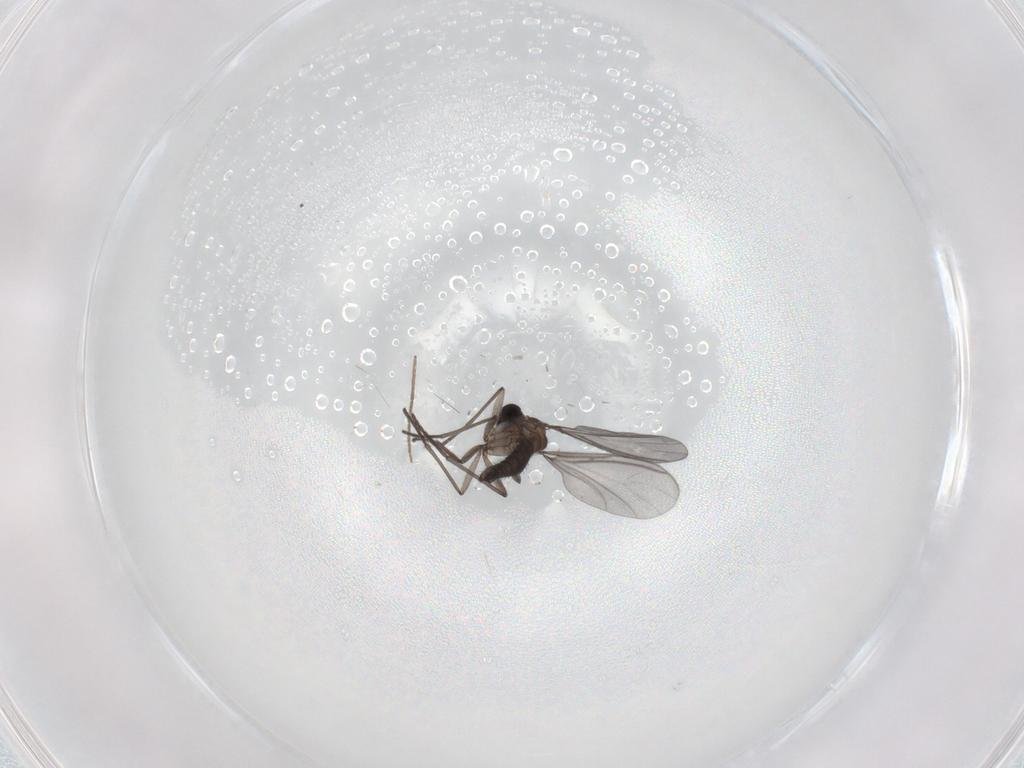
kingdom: Animalia
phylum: Arthropoda
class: Insecta
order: Diptera
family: Chironomidae
